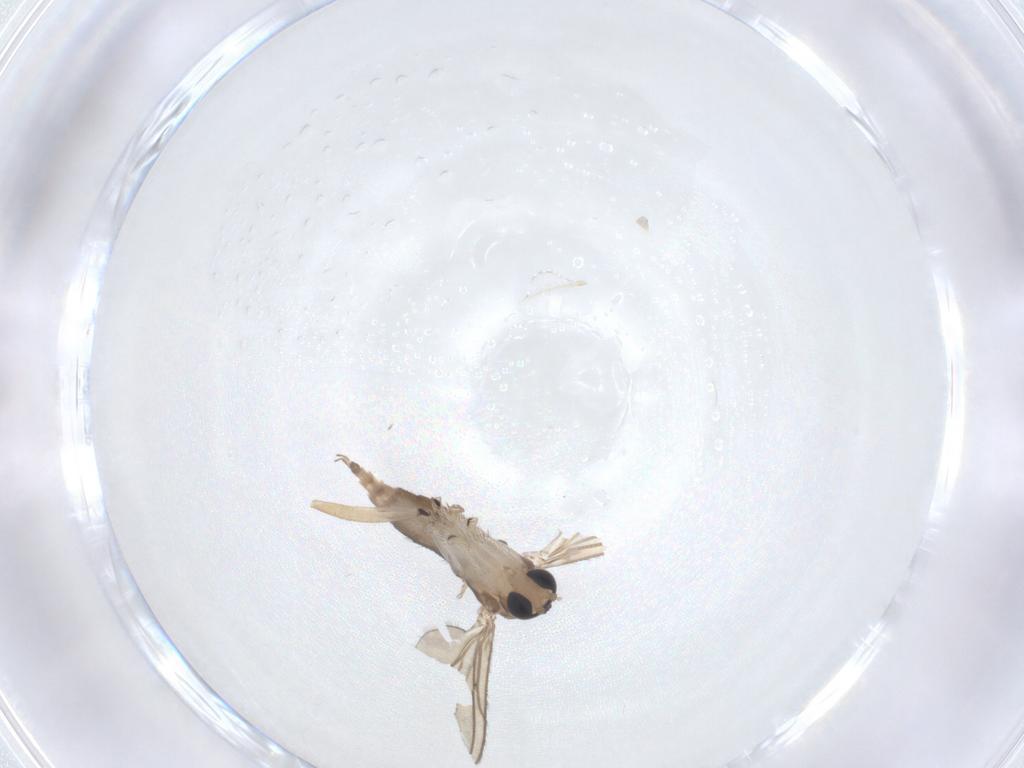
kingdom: Animalia
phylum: Arthropoda
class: Insecta
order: Diptera
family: Sciaridae
